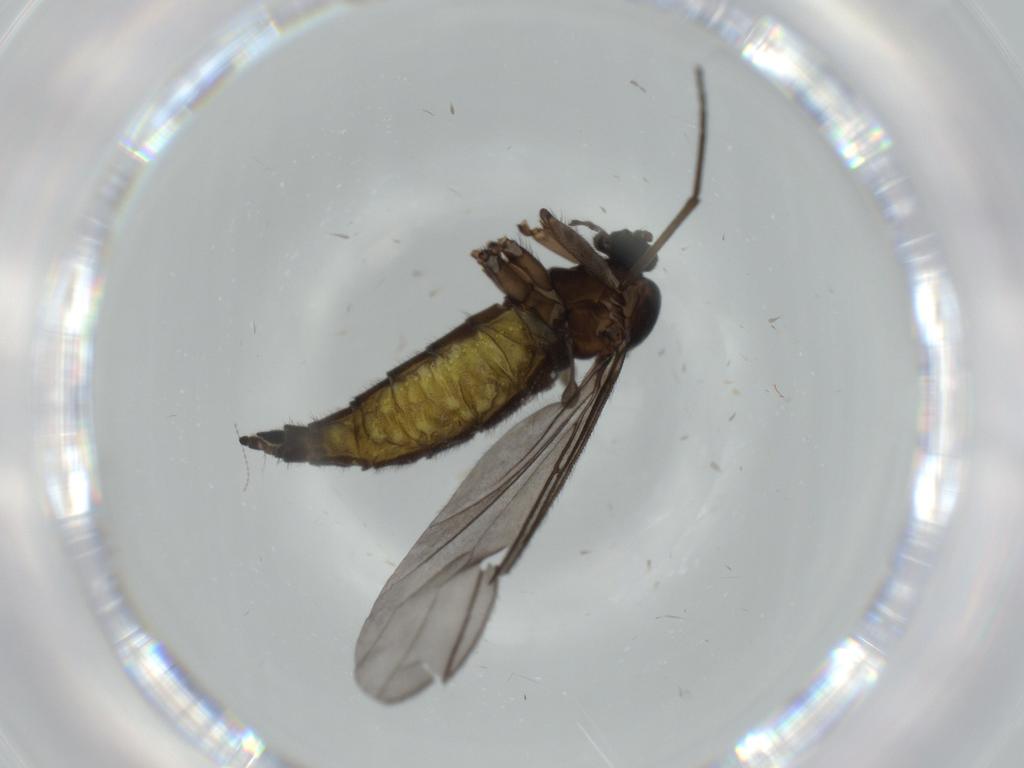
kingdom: Animalia
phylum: Arthropoda
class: Insecta
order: Diptera
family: Sciaridae
